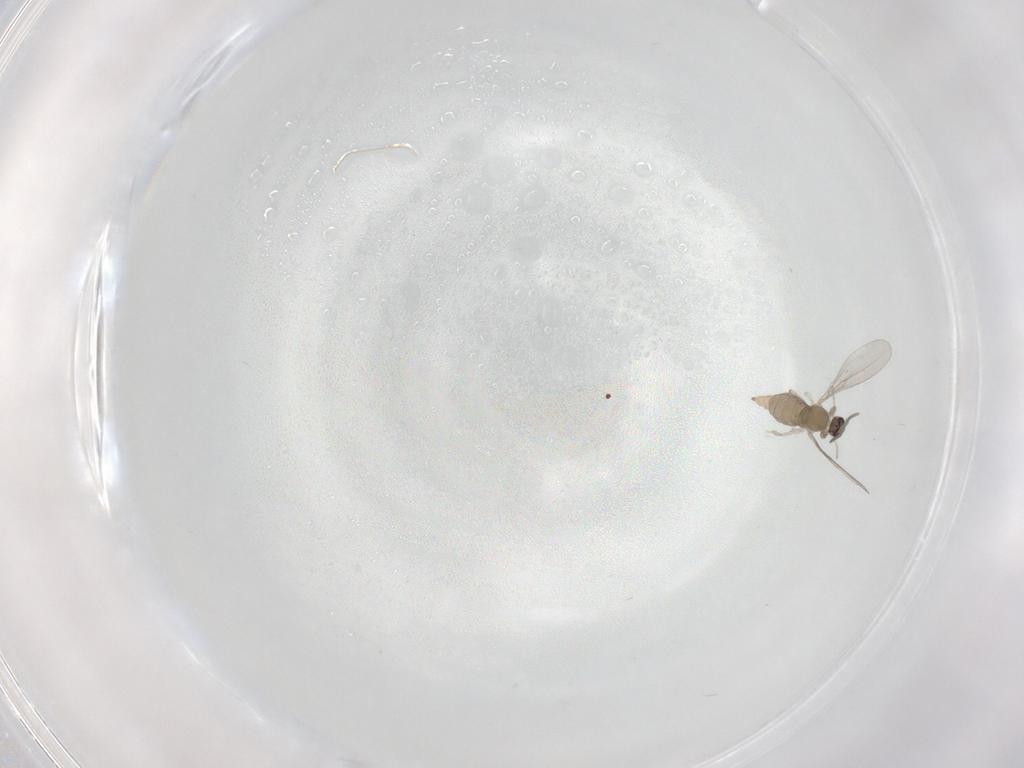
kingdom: Animalia
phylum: Arthropoda
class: Insecta
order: Diptera
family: Cecidomyiidae
